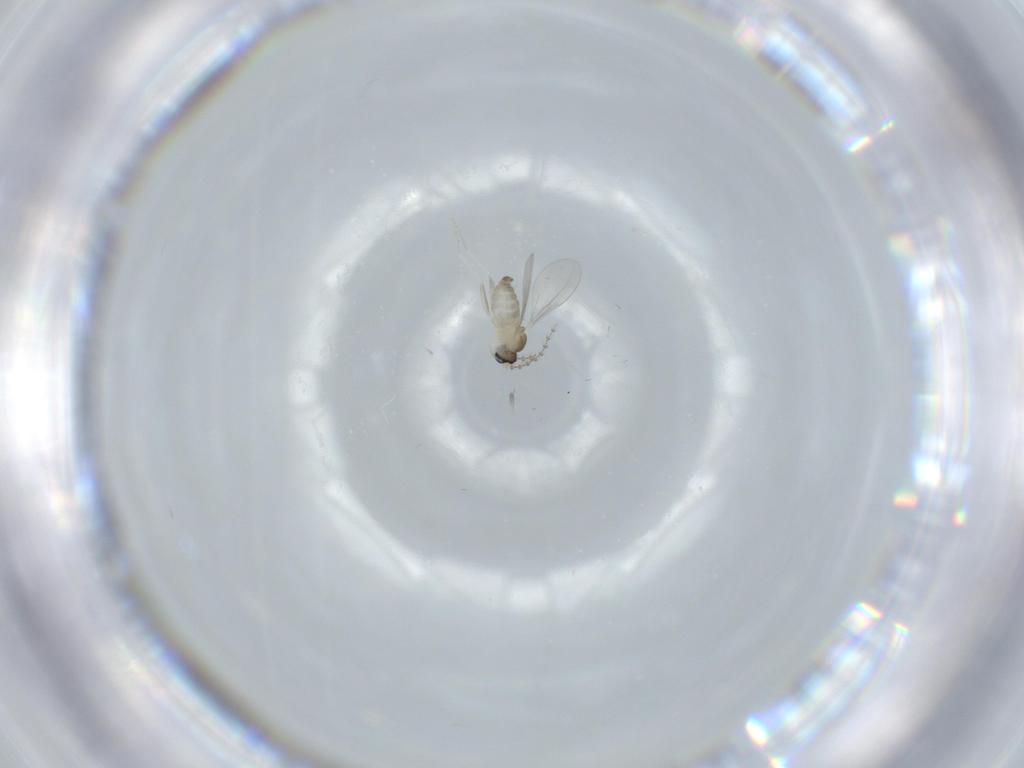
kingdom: Animalia
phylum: Arthropoda
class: Insecta
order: Diptera
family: Cecidomyiidae
